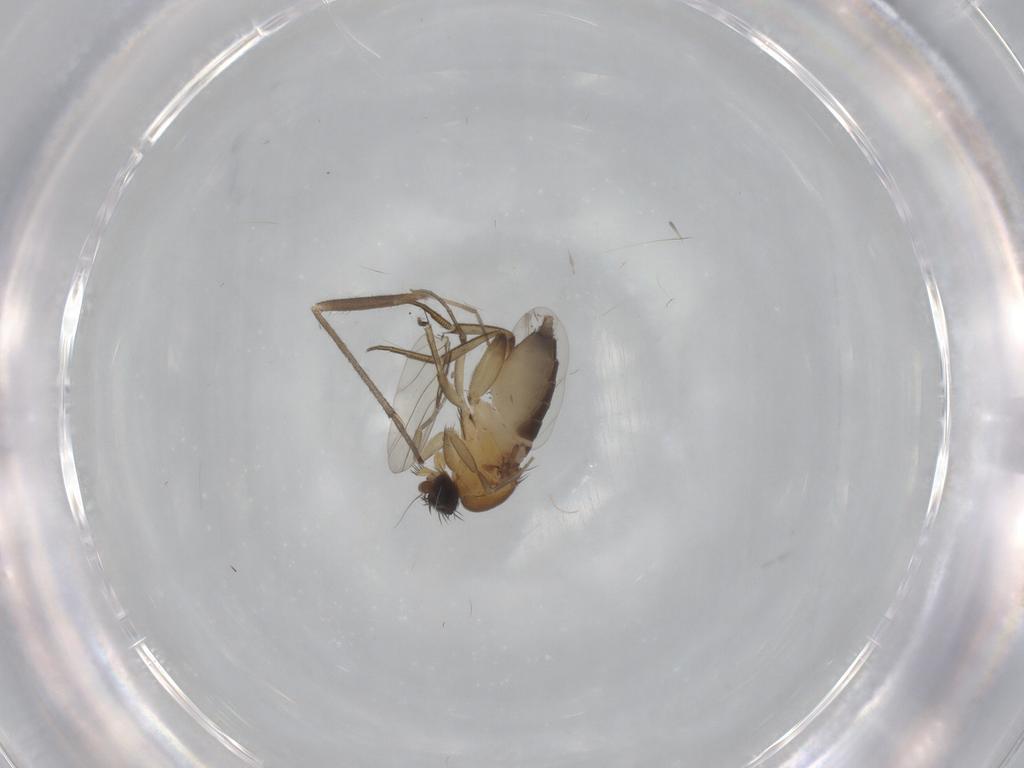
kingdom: Animalia
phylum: Arthropoda
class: Insecta
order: Diptera
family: Phoridae
